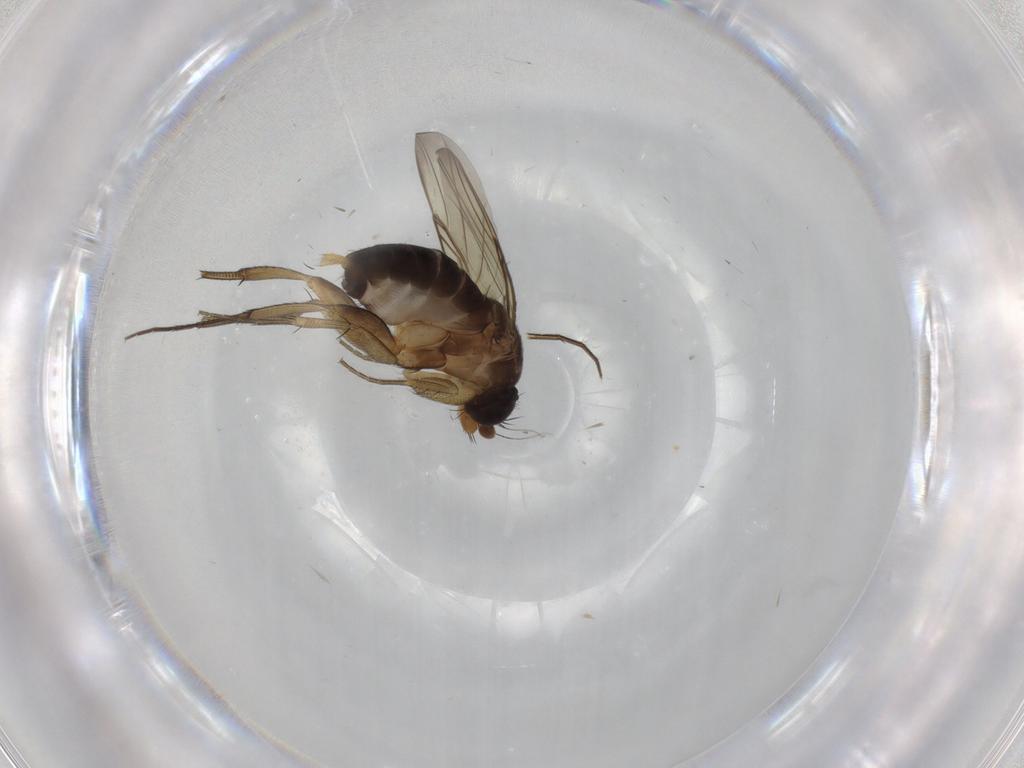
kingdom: Animalia
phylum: Arthropoda
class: Insecta
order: Diptera
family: Phoridae
